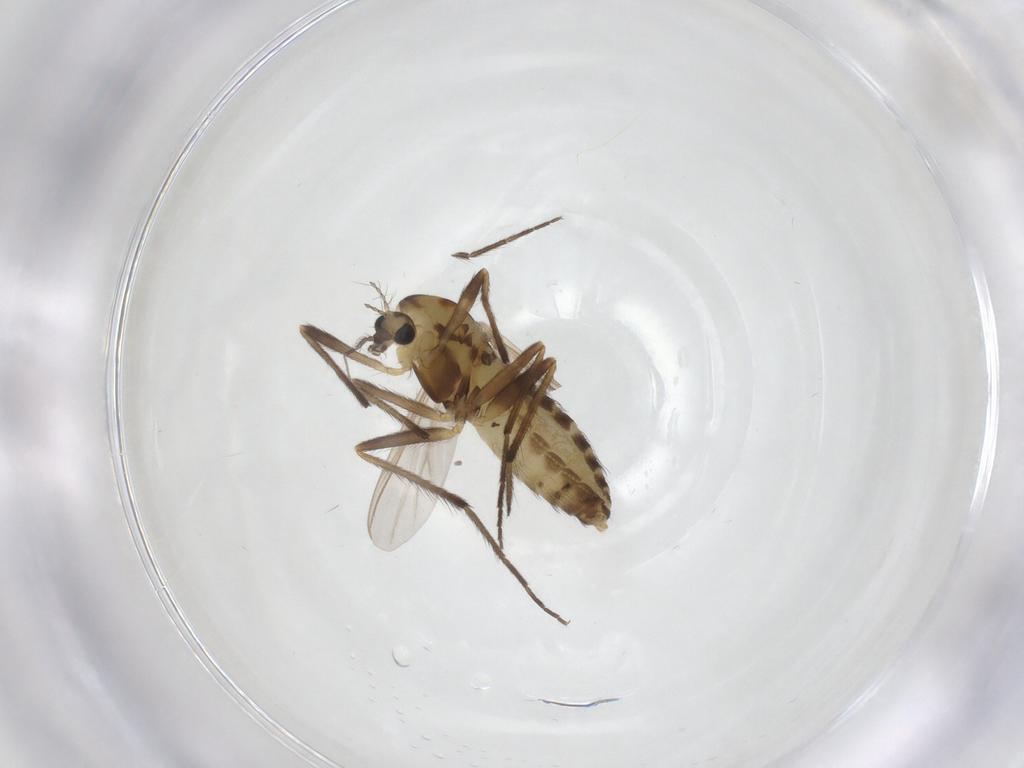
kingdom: Animalia
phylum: Arthropoda
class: Insecta
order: Diptera
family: Chironomidae
